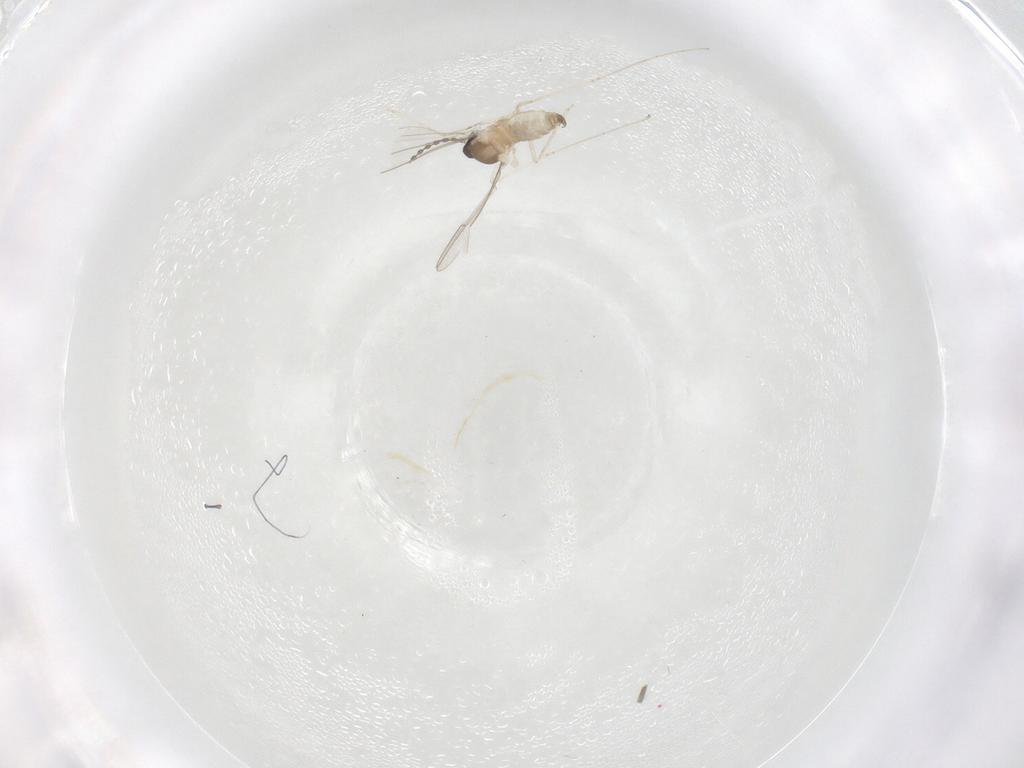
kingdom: Animalia
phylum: Arthropoda
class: Insecta
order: Diptera
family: Cecidomyiidae
